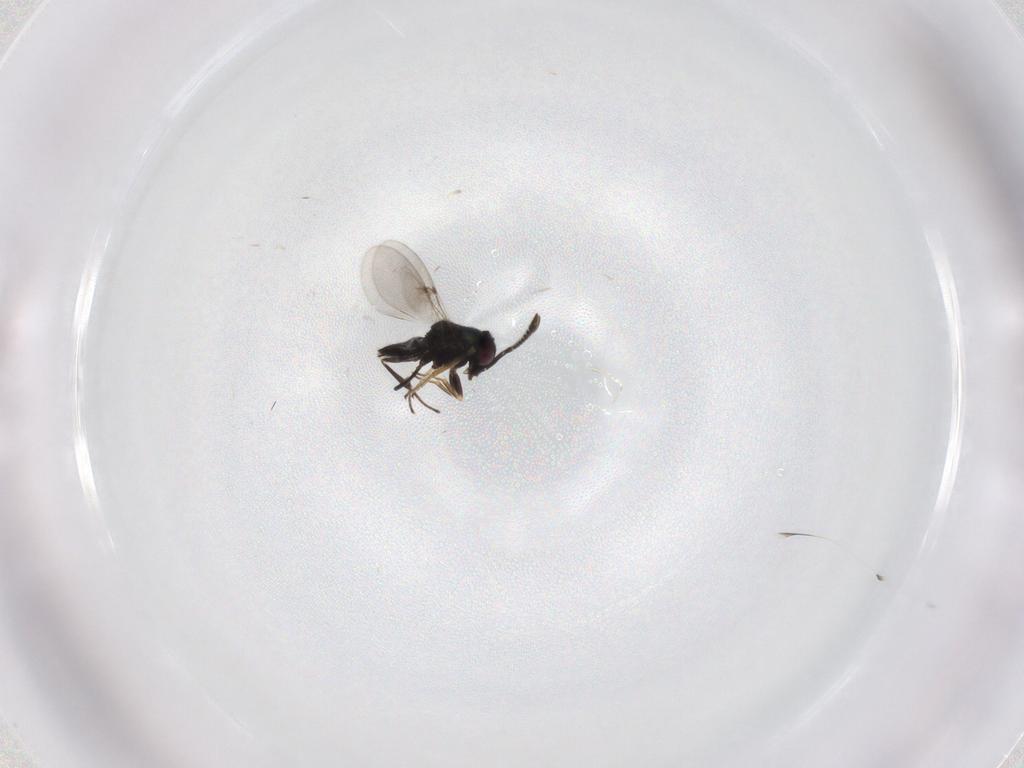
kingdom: Animalia
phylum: Arthropoda
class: Insecta
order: Hymenoptera
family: Encyrtidae
